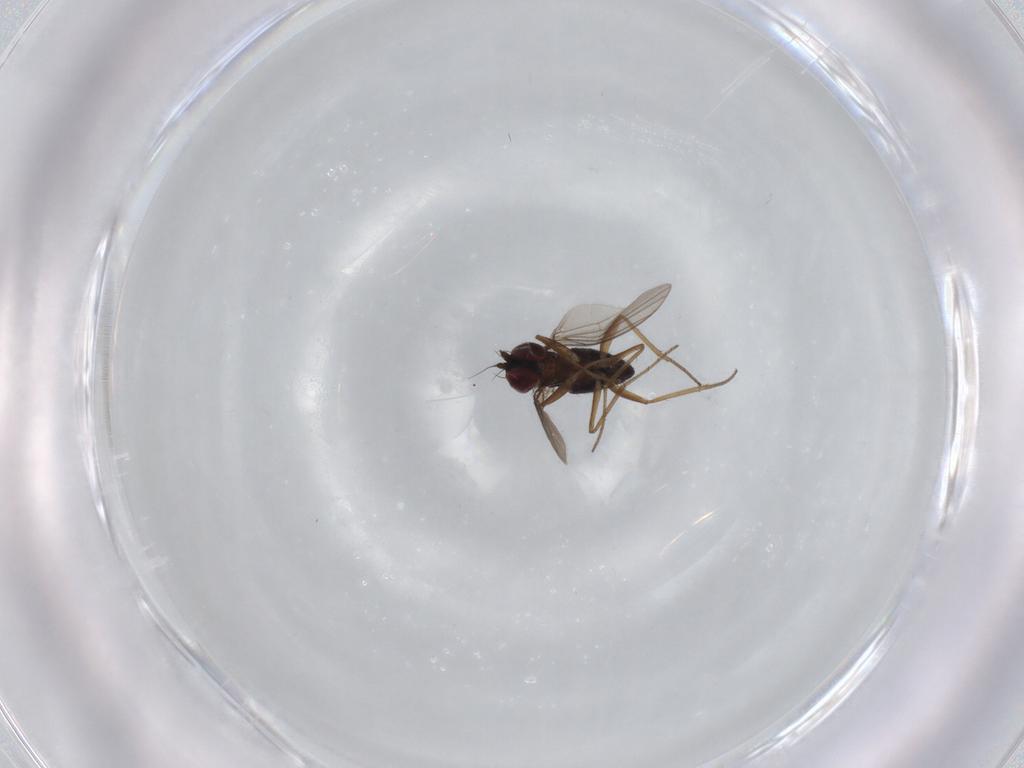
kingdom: Animalia
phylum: Arthropoda
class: Insecta
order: Diptera
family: Dolichopodidae
